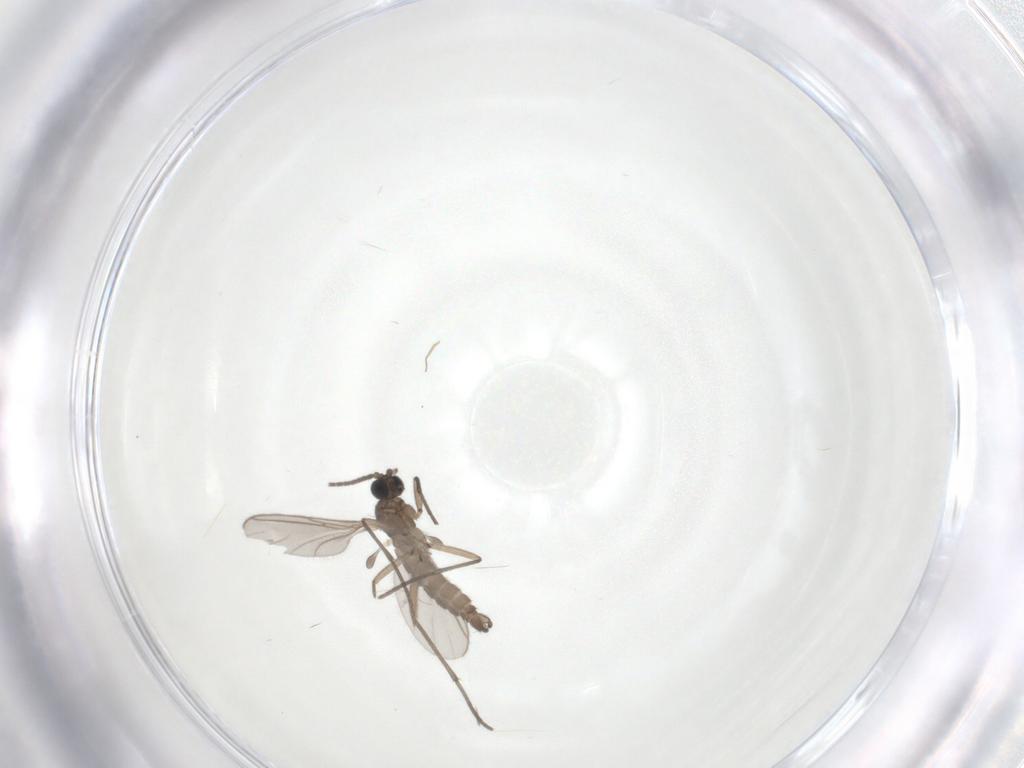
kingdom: Animalia
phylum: Arthropoda
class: Insecta
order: Diptera
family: Sciaridae
